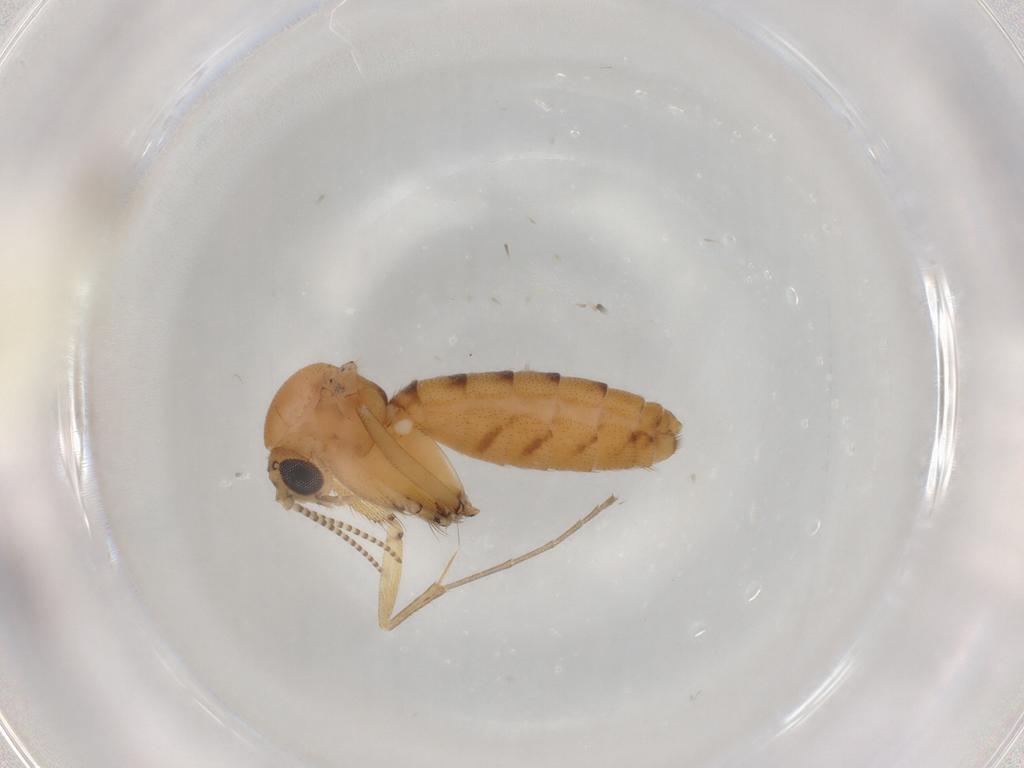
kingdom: Animalia
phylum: Arthropoda
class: Insecta
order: Diptera
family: Mycetophilidae
